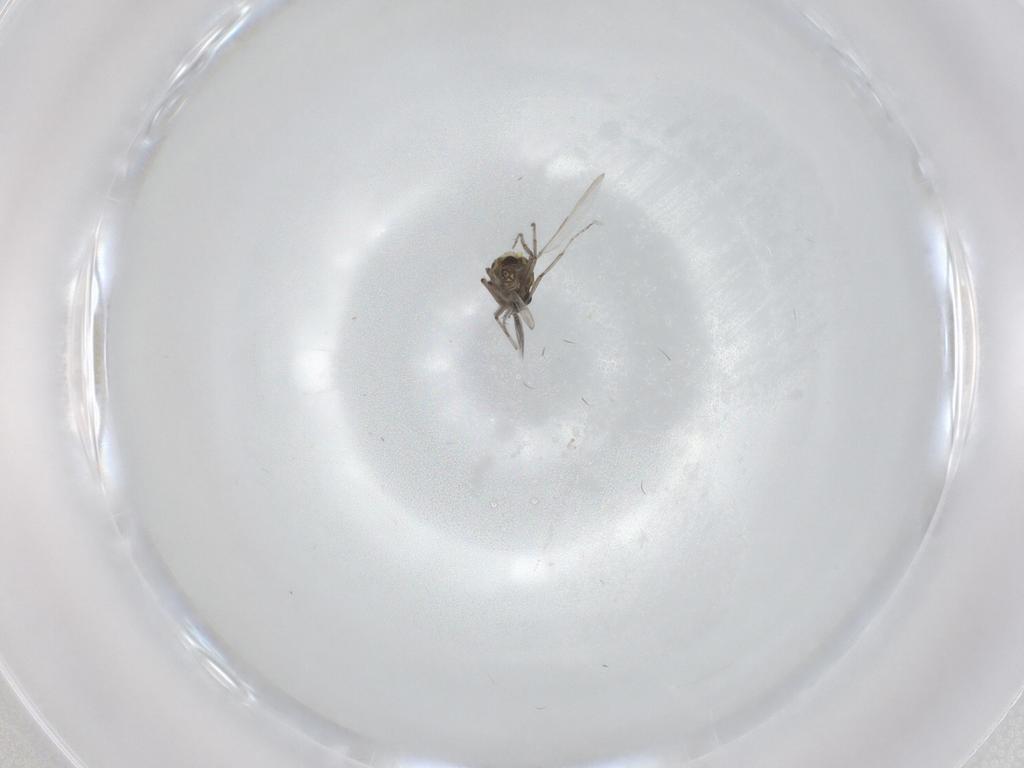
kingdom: Animalia
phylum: Arthropoda
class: Insecta
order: Diptera
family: Ceratopogonidae
